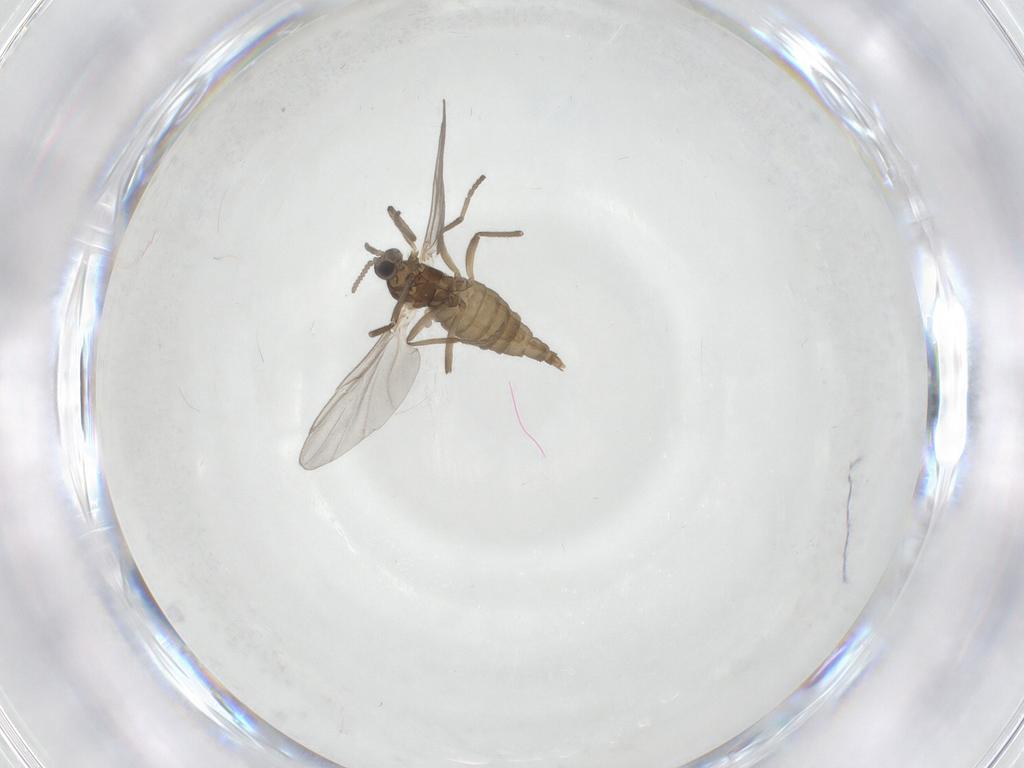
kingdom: Animalia
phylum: Arthropoda
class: Insecta
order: Diptera
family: Cecidomyiidae
